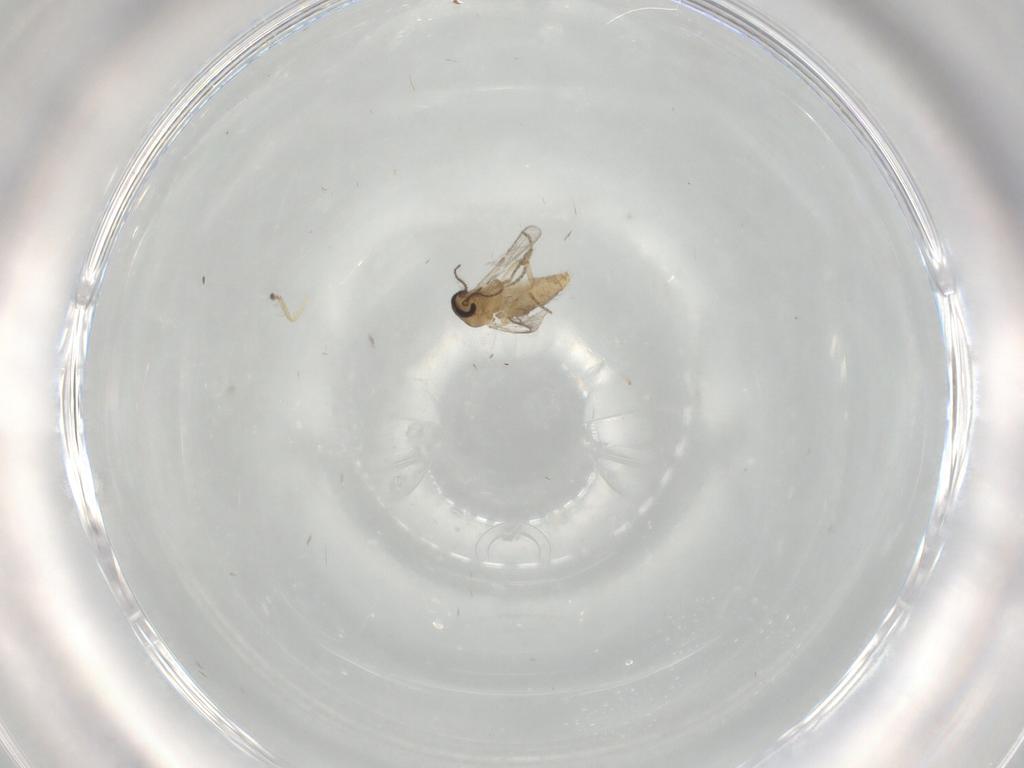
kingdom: Animalia
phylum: Arthropoda
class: Insecta
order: Diptera
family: Ceratopogonidae
